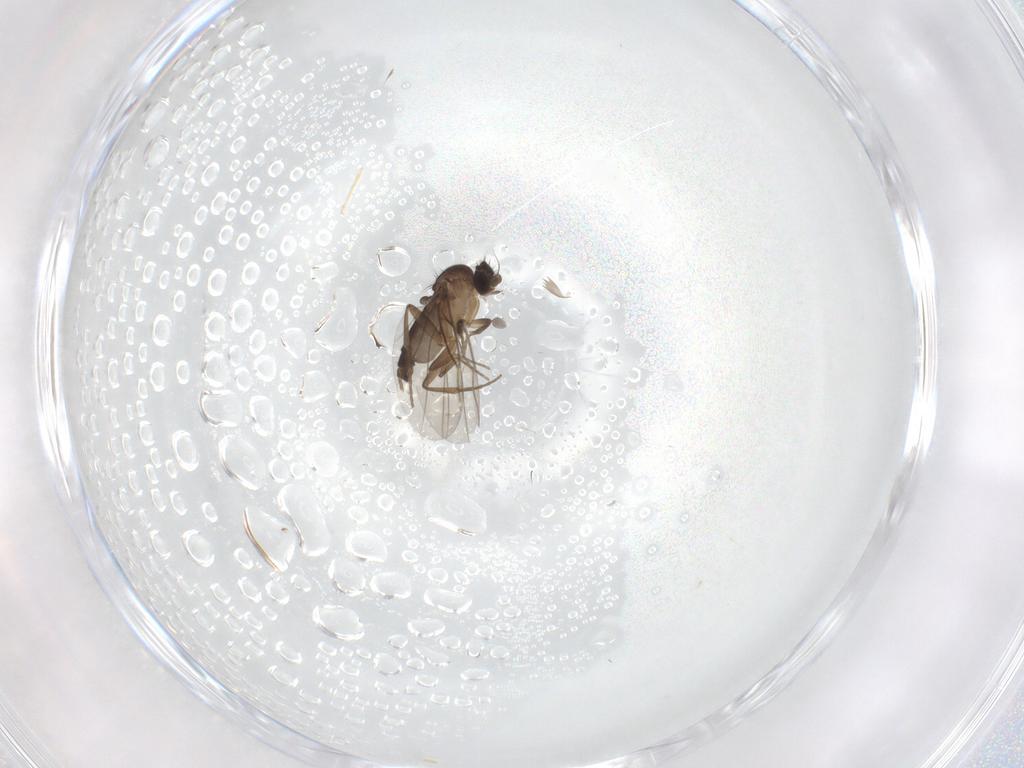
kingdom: Animalia
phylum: Arthropoda
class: Insecta
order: Diptera
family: Phoridae
